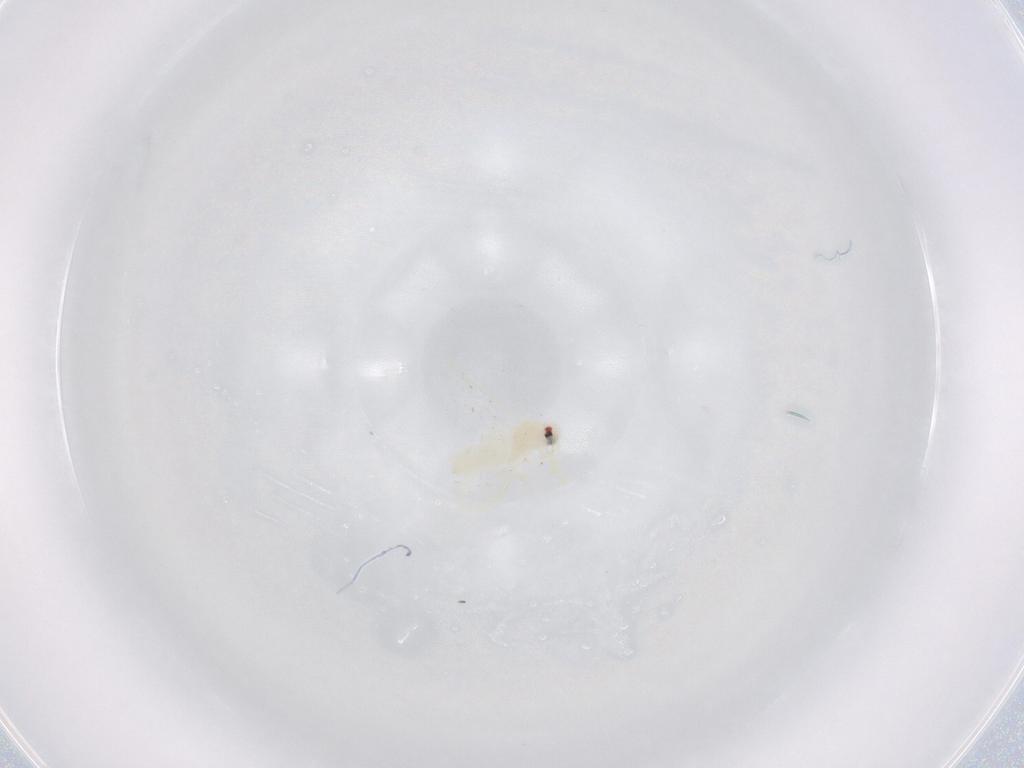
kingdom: Animalia
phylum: Arthropoda
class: Insecta
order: Hemiptera
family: Aleyrodidae
